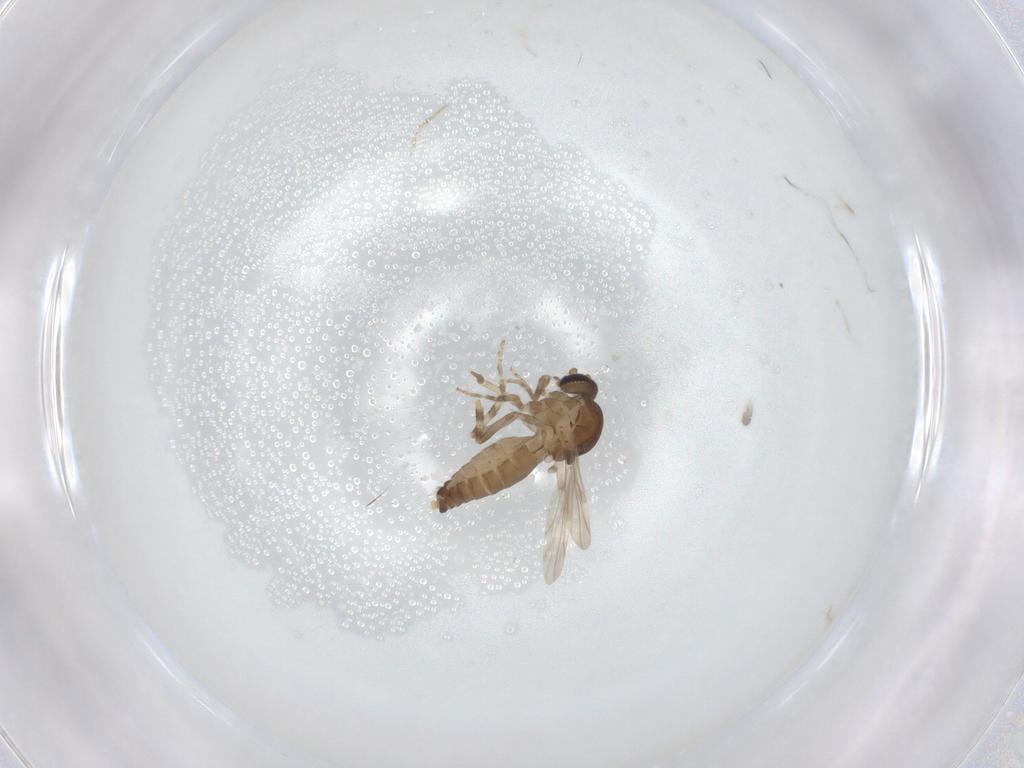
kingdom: Animalia
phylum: Arthropoda
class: Insecta
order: Diptera
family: Ceratopogonidae
